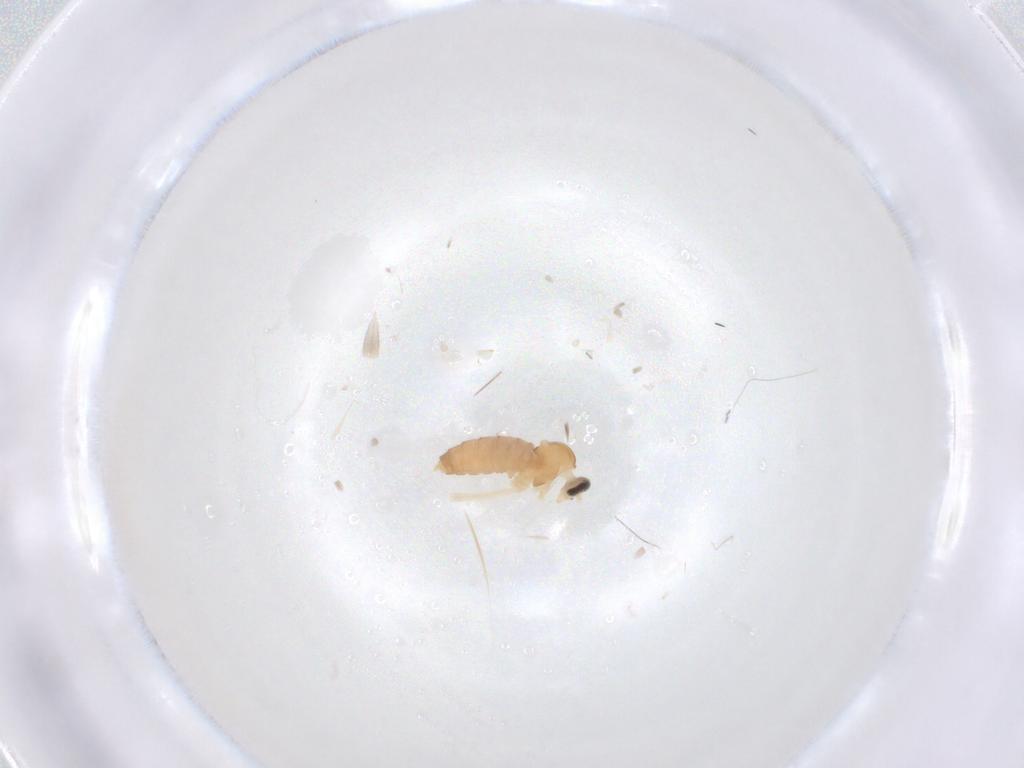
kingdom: Animalia
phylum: Arthropoda
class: Insecta
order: Diptera
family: Cecidomyiidae
